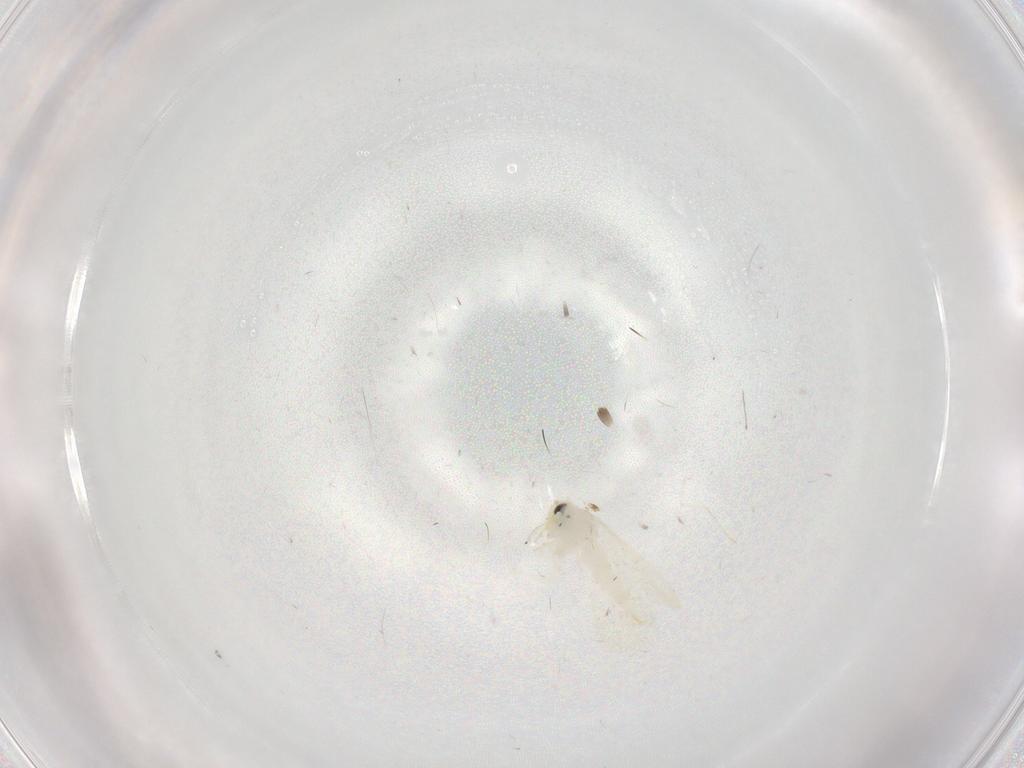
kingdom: Animalia
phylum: Arthropoda
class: Insecta
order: Hemiptera
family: Aleyrodidae
